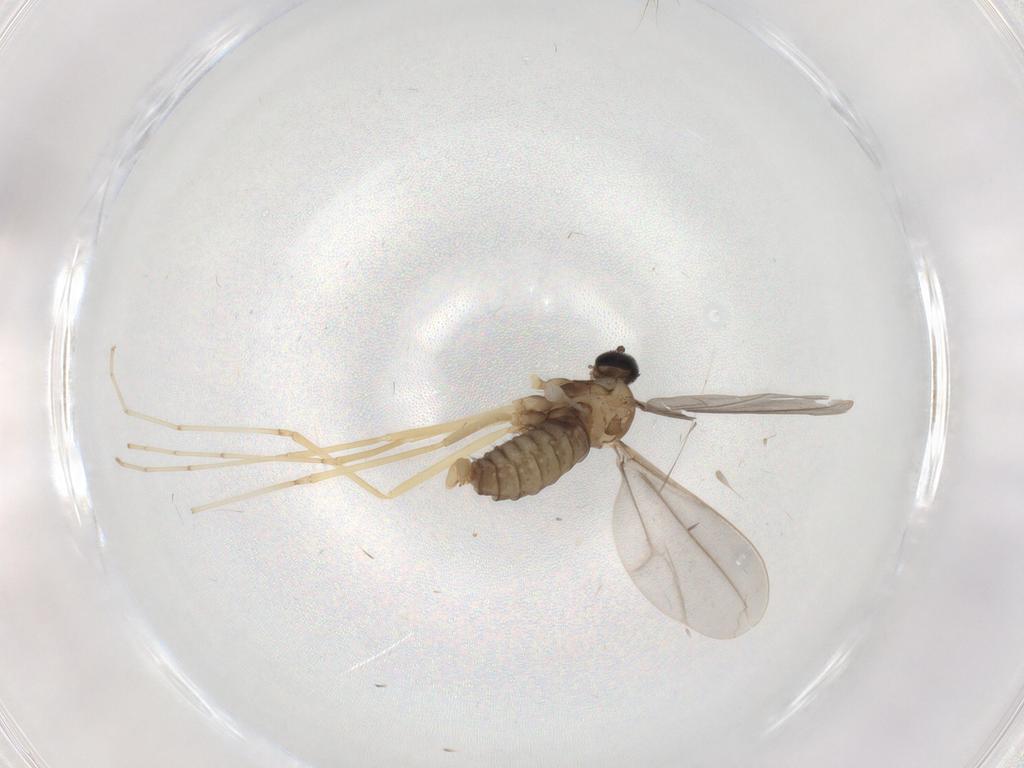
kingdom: Animalia
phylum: Arthropoda
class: Insecta
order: Diptera
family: Cecidomyiidae
